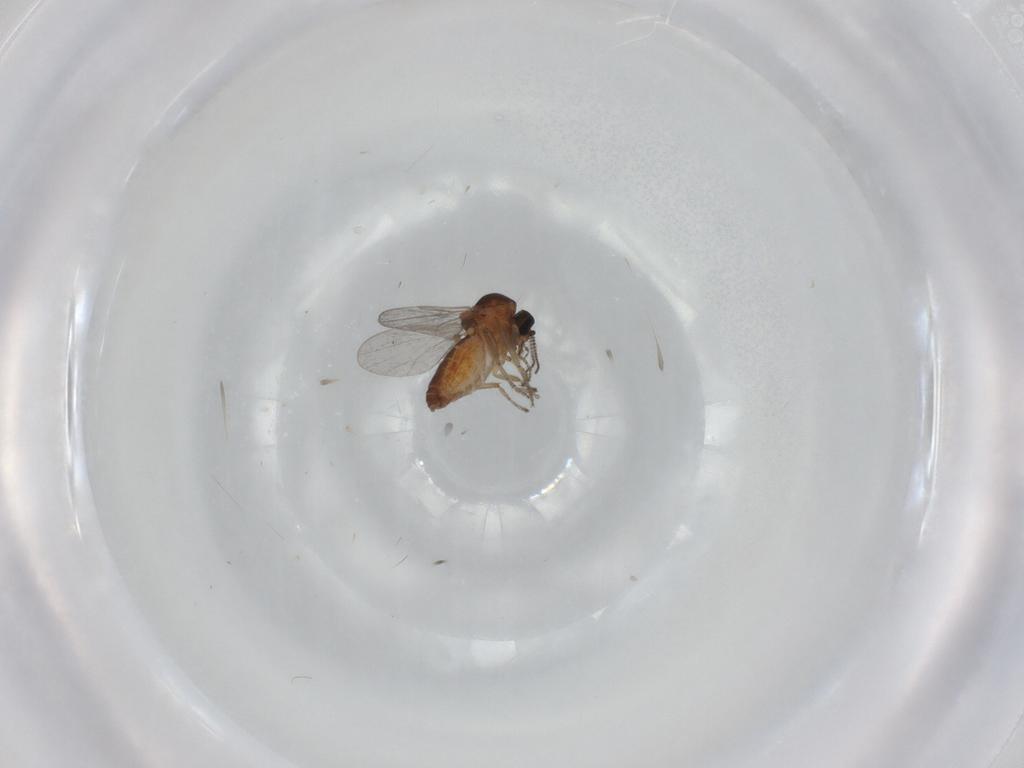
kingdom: Animalia
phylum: Arthropoda
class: Insecta
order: Diptera
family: Ceratopogonidae
